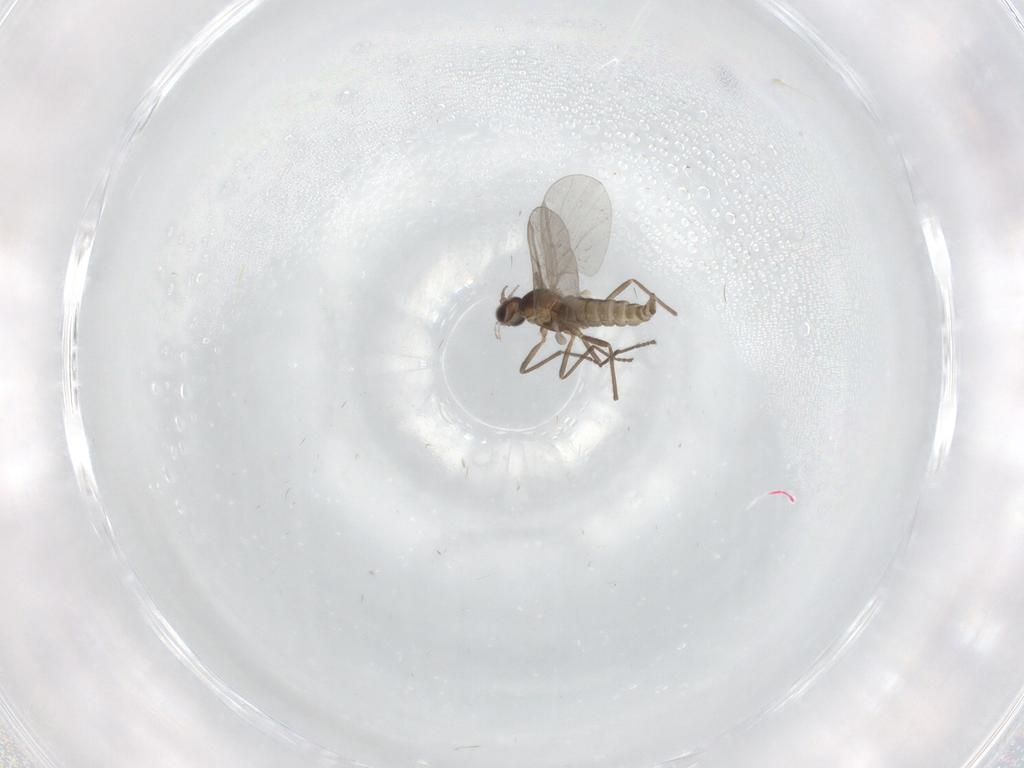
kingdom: Animalia
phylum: Arthropoda
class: Insecta
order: Diptera
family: Cecidomyiidae
